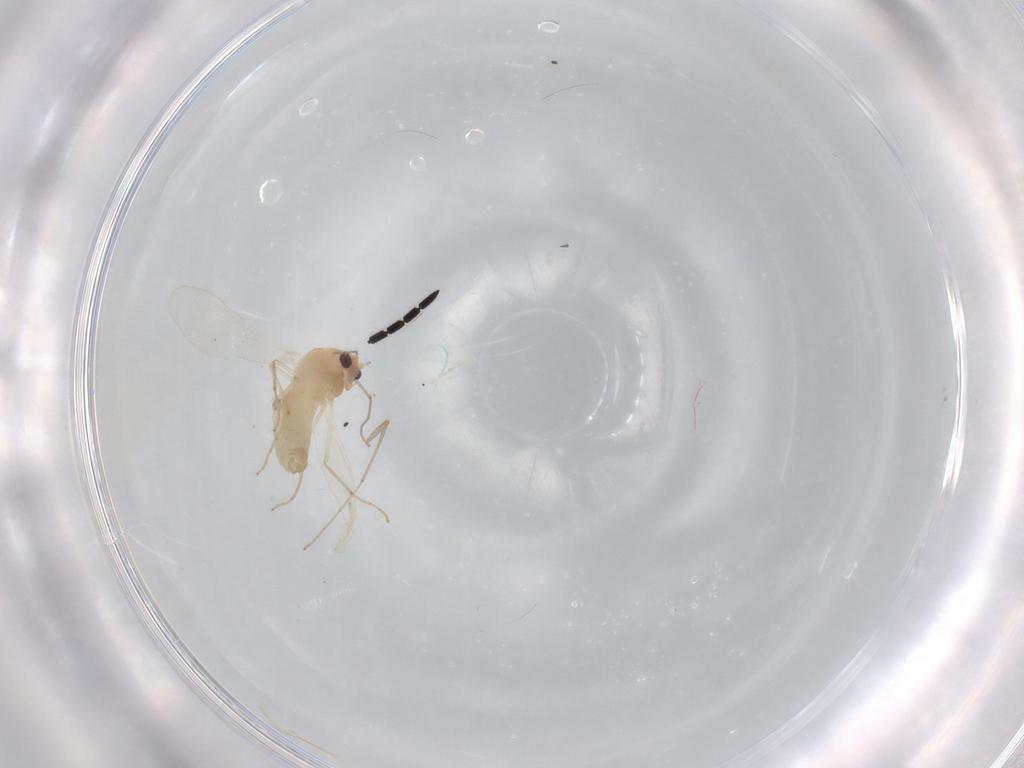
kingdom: Animalia
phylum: Arthropoda
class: Insecta
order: Diptera
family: Chironomidae
